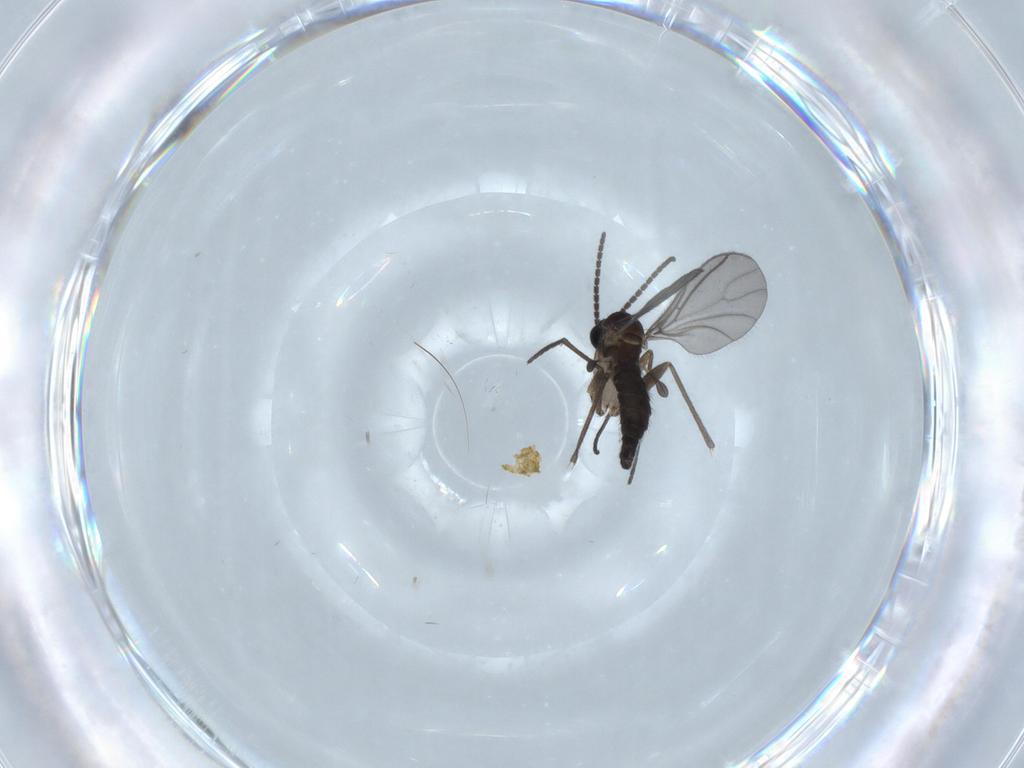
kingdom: Animalia
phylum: Arthropoda
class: Insecta
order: Diptera
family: Sciaridae
